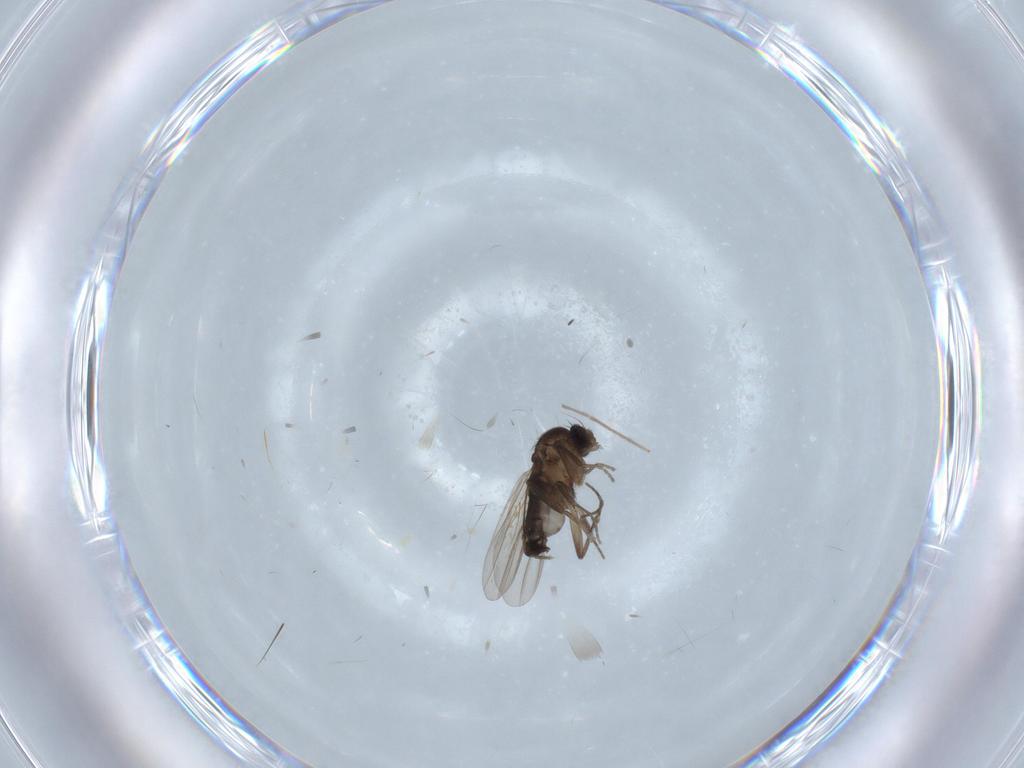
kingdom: Animalia
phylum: Arthropoda
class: Insecta
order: Diptera
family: Phoridae
